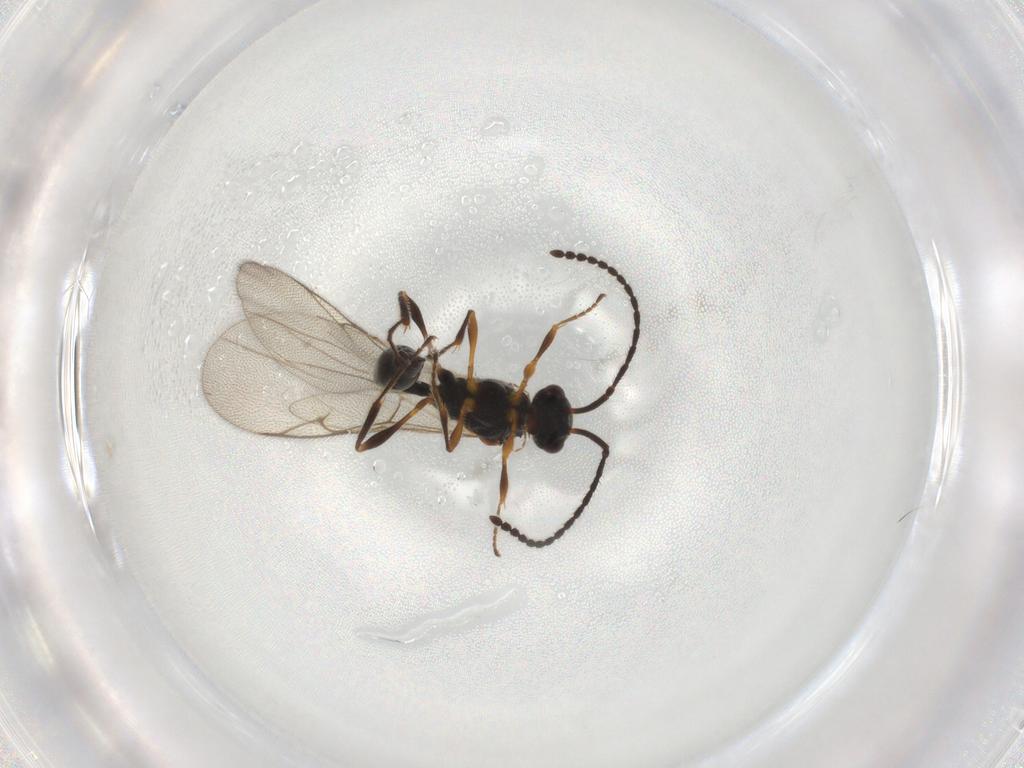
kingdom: Animalia
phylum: Arthropoda
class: Insecta
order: Hymenoptera
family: Diapriidae
